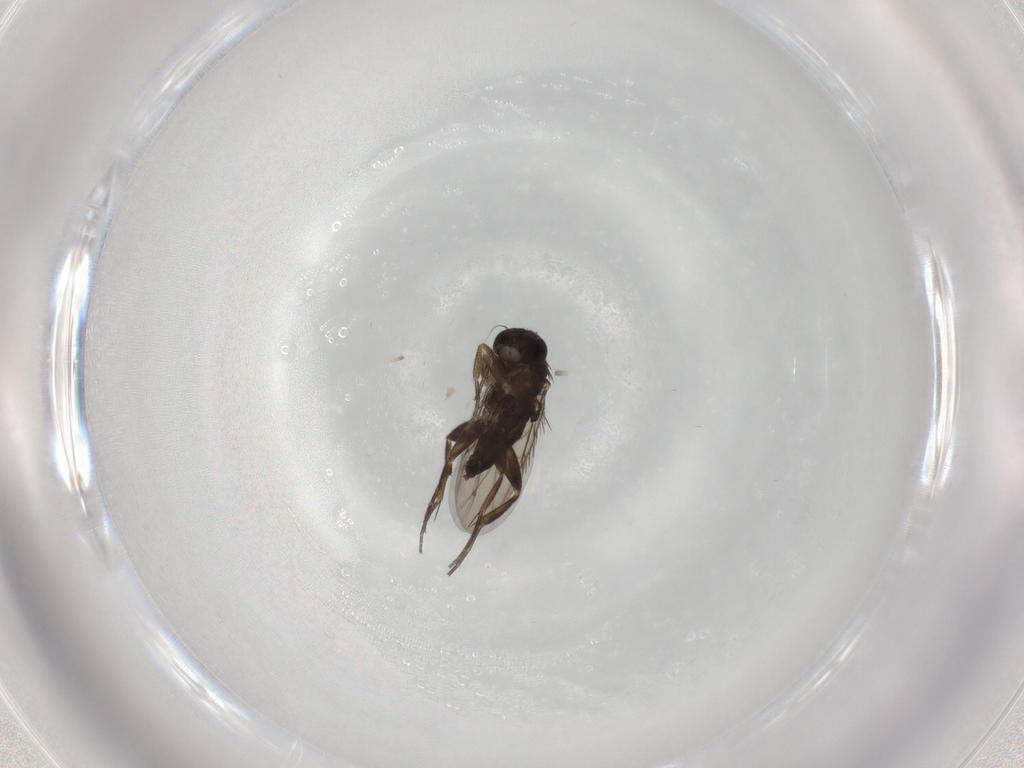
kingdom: Animalia
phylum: Arthropoda
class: Insecta
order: Diptera
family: Phoridae
